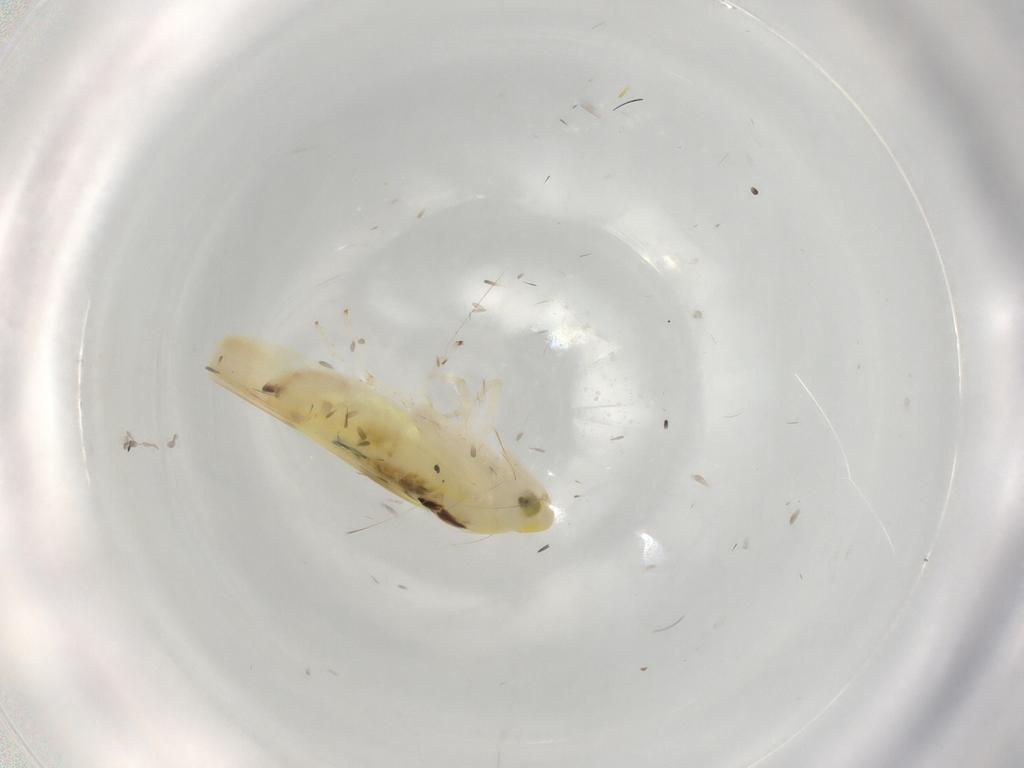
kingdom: Animalia
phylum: Arthropoda
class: Insecta
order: Hemiptera
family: Cicadellidae
